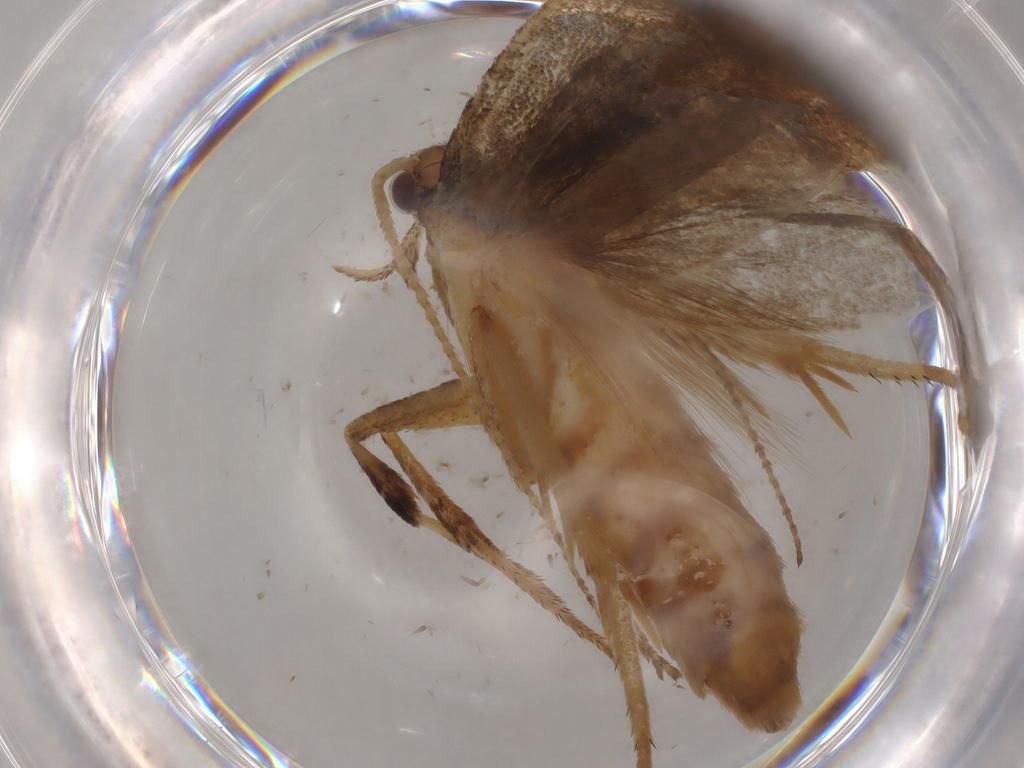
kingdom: Animalia
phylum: Arthropoda
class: Insecta
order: Lepidoptera
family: Plutellidae
